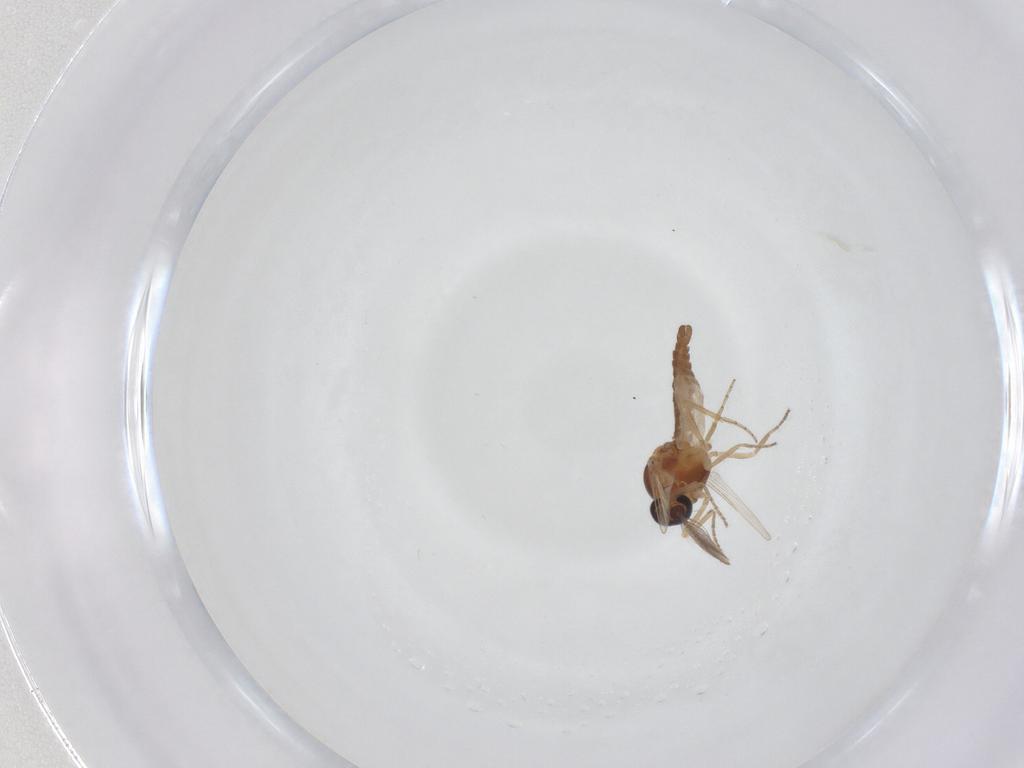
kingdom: Animalia
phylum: Arthropoda
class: Insecta
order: Diptera
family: Ceratopogonidae
